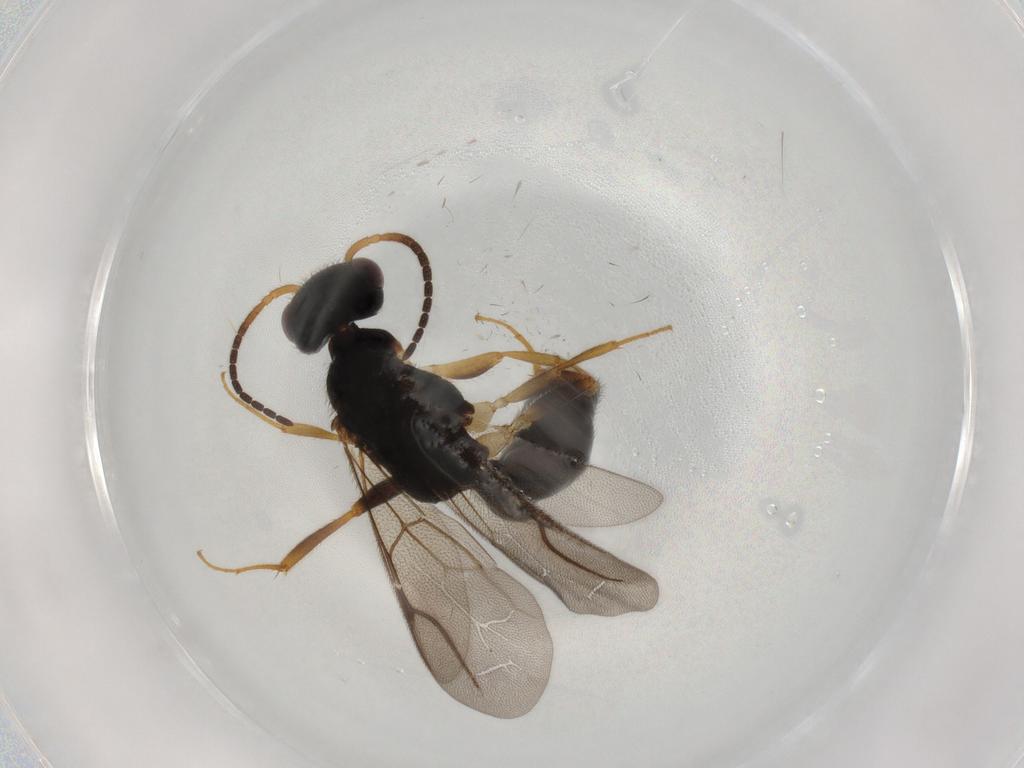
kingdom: Animalia
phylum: Arthropoda
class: Insecta
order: Hymenoptera
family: Bethylidae
